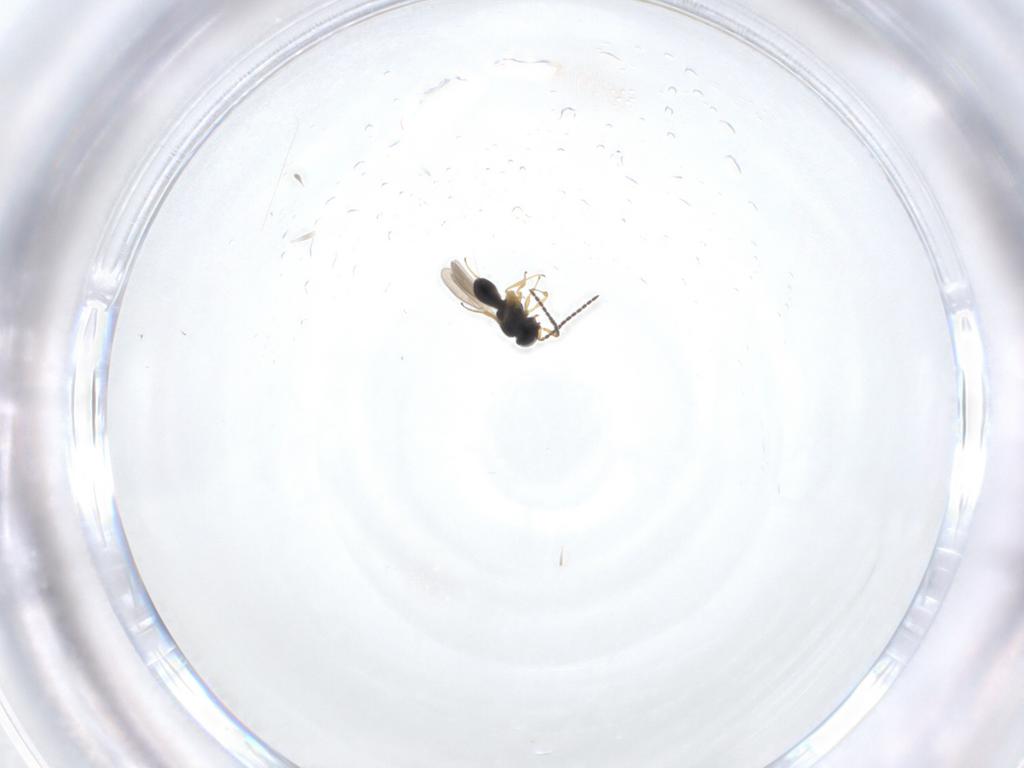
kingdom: Animalia
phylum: Arthropoda
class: Insecta
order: Hymenoptera
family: Scelionidae
